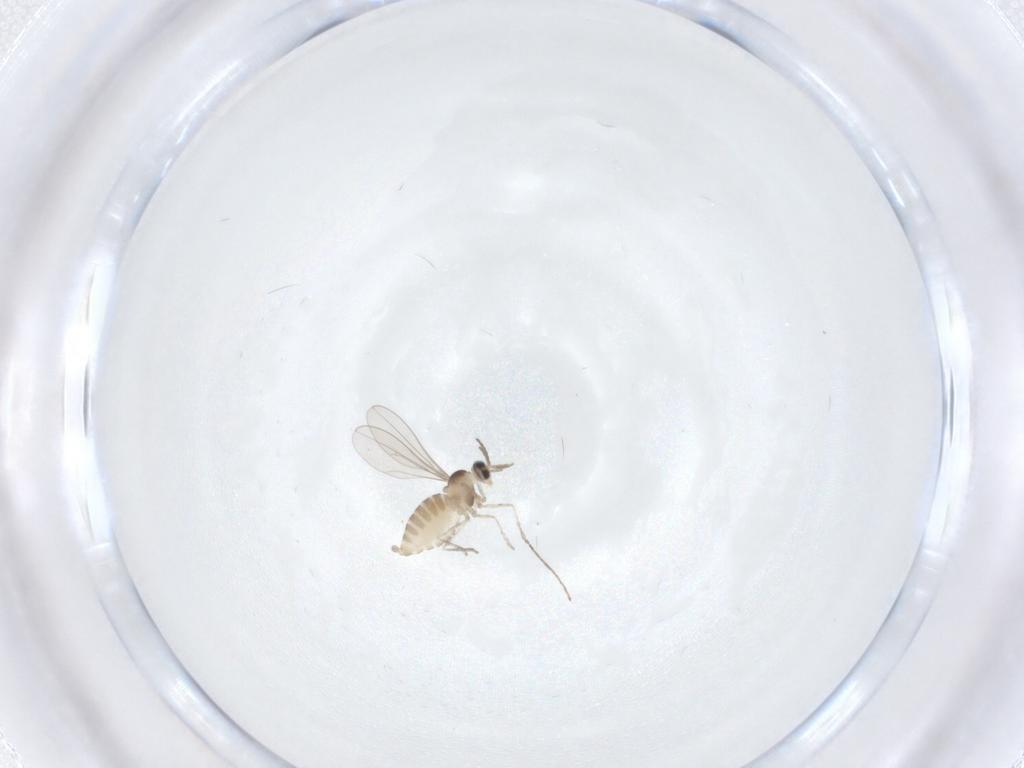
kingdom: Animalia
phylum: Arthropoda
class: Insecta
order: Diptera
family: Cecidomyiidae
